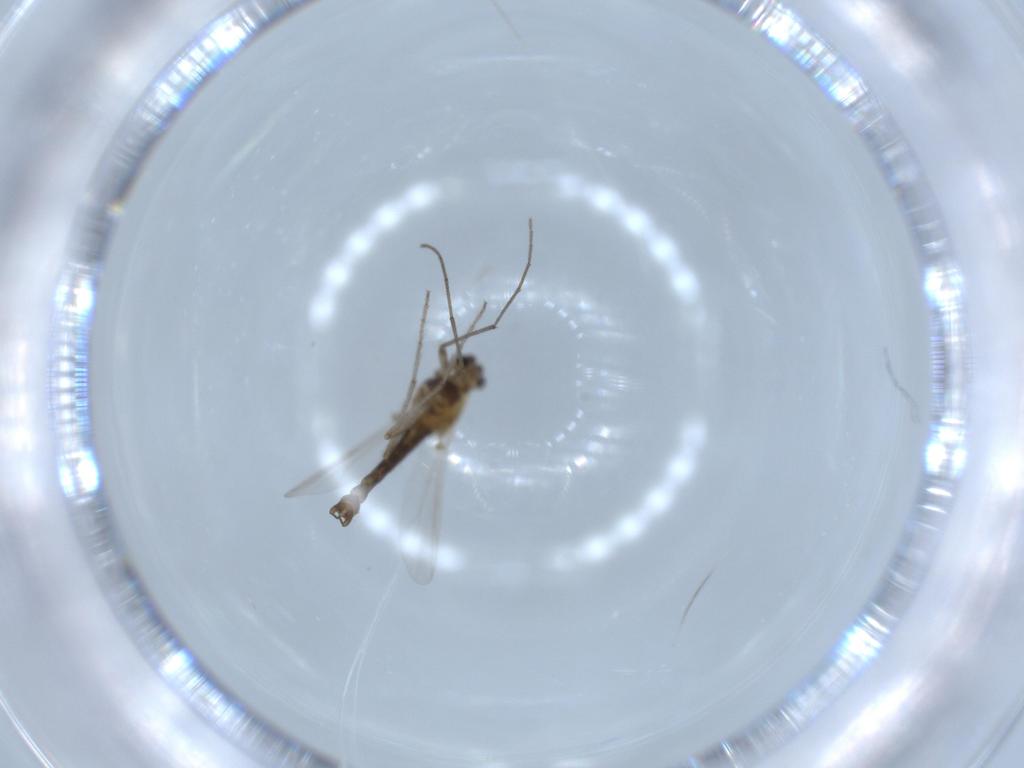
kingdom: Animalia
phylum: Arthropoda
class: Insecta
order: Diptera
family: Chironomidae
